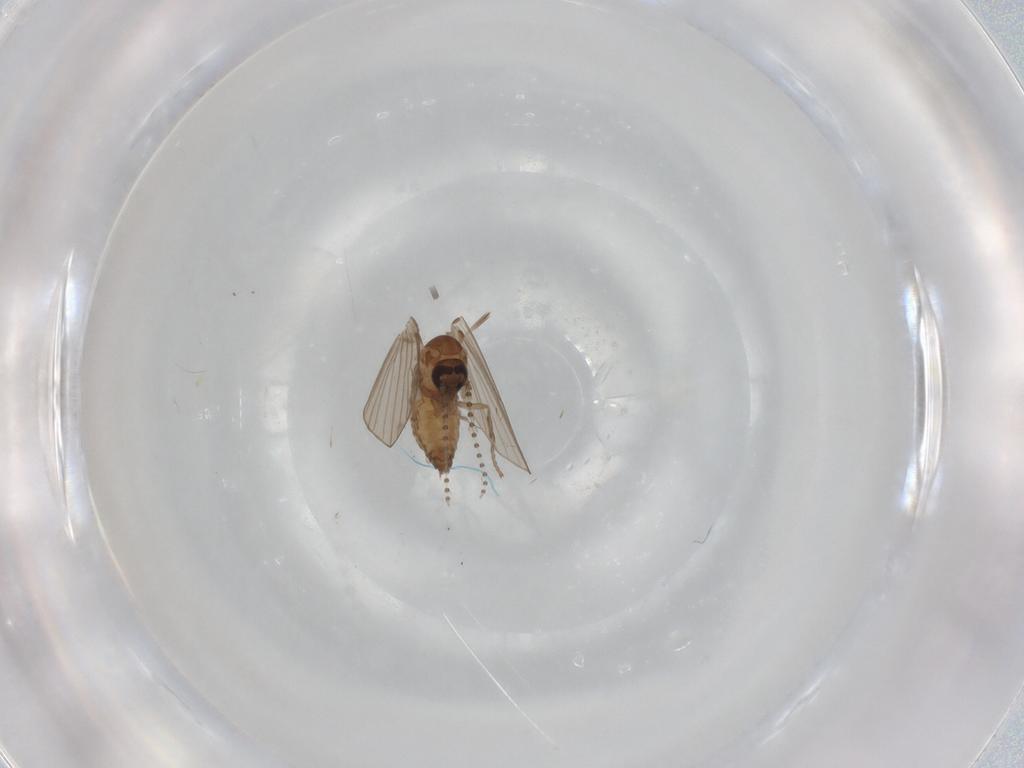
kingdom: Animalia
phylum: Arthropoda
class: Insecta
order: Diptera
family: Psychodidae
